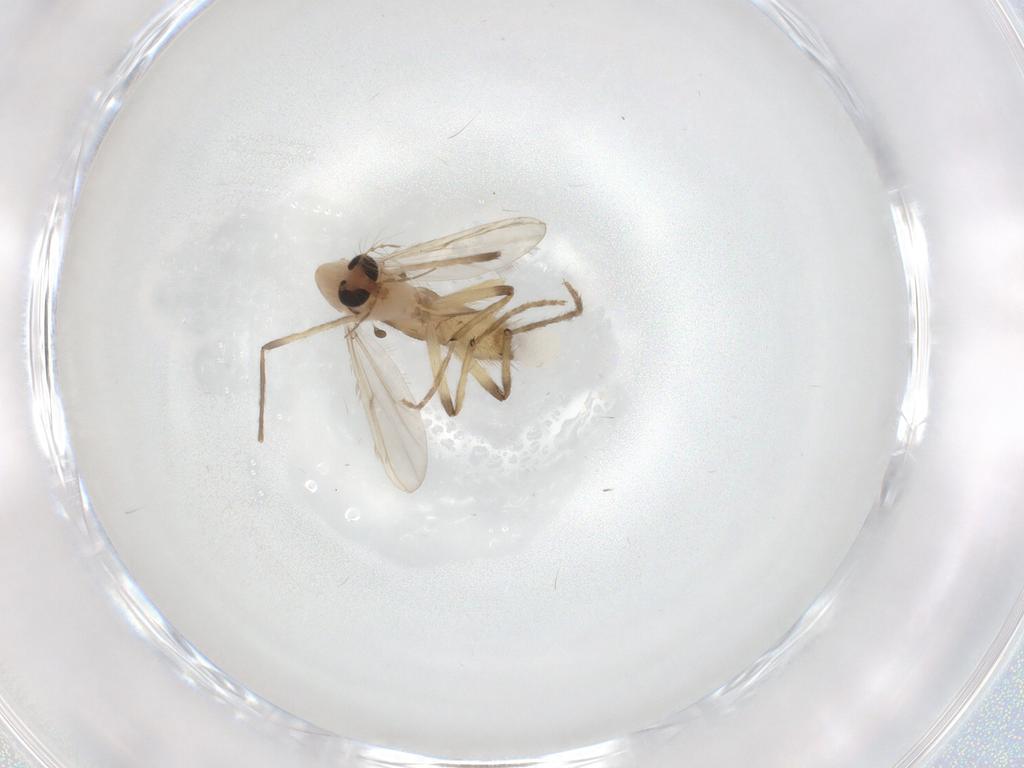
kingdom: Animalia
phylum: Arthropoda
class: Insecta
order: Diptera
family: Chironomidae
